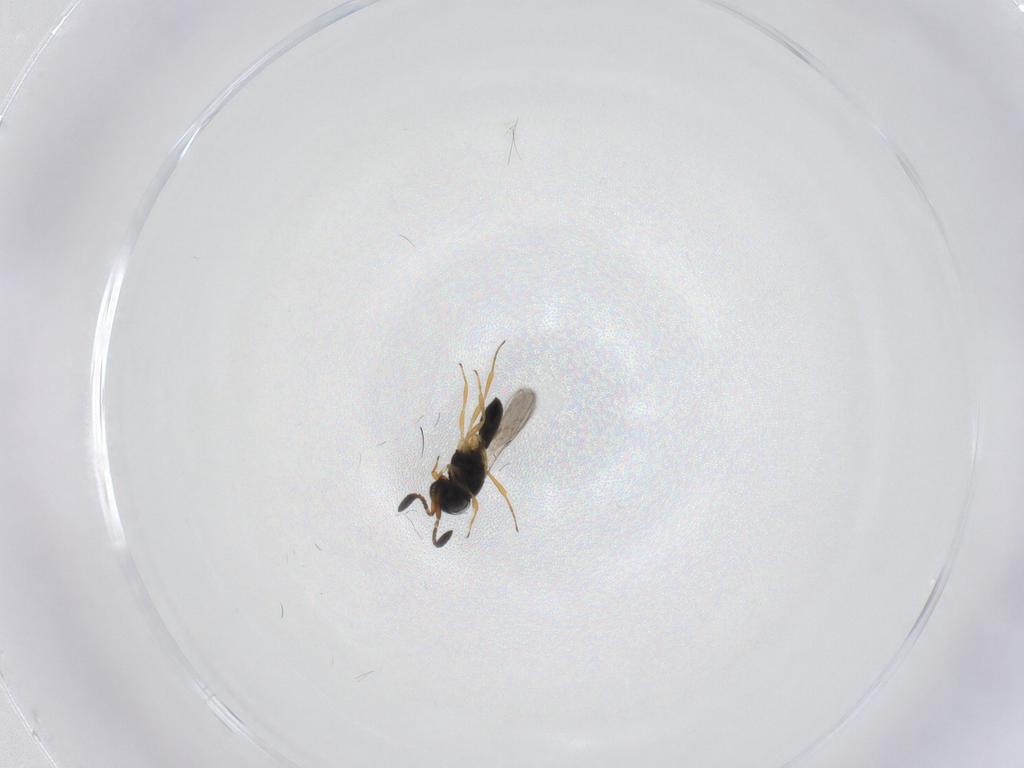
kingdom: Animalia
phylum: Arthropoda
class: Insecta
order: Hymenoptera
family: Scelionidae
